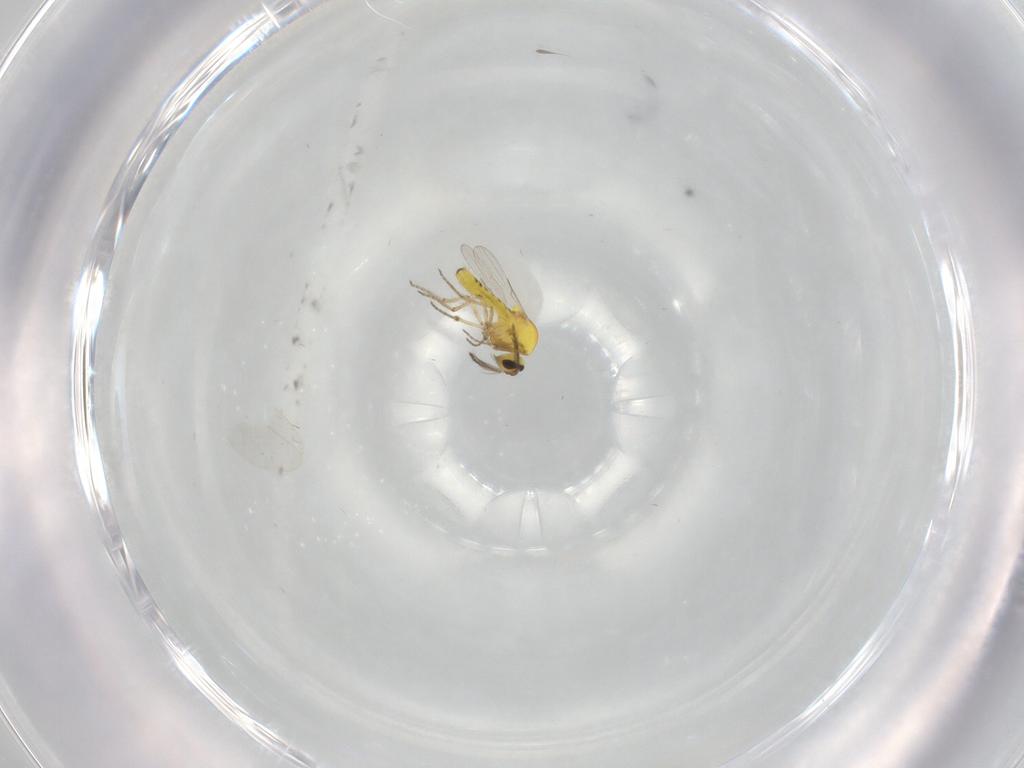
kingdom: Animalia
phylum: Arthropoda
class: Insecta
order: Diptera
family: Ceratopogonidae
